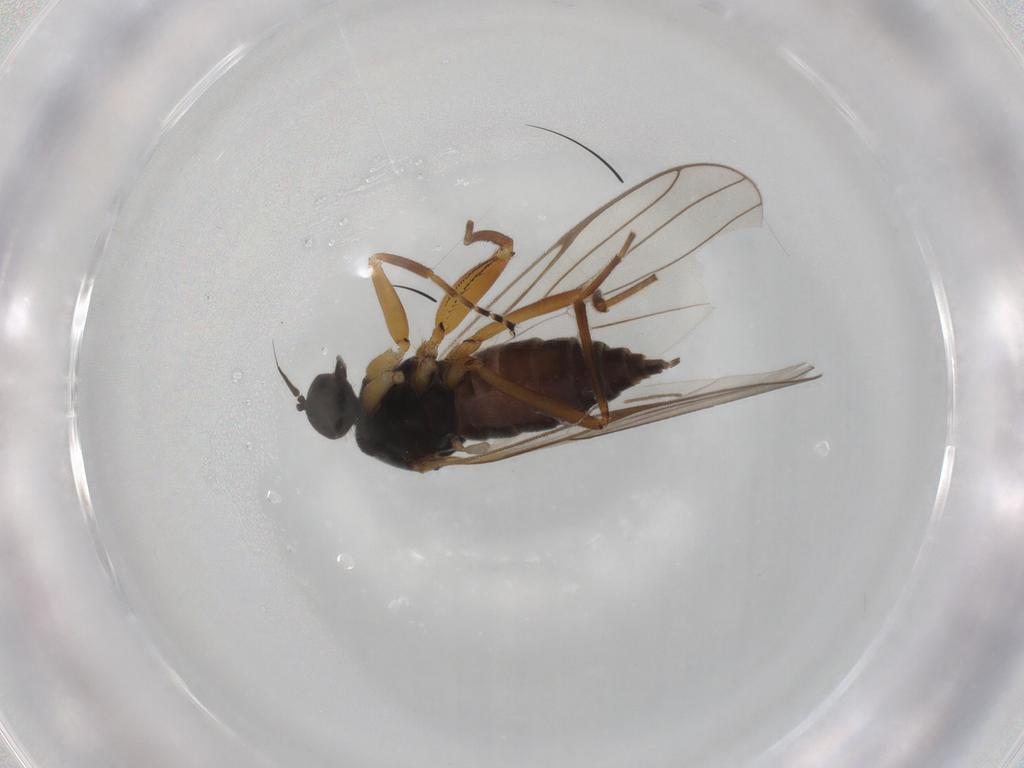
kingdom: Animalia
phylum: Arthropoda
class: Insecta
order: Diptera
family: Hybotidae
